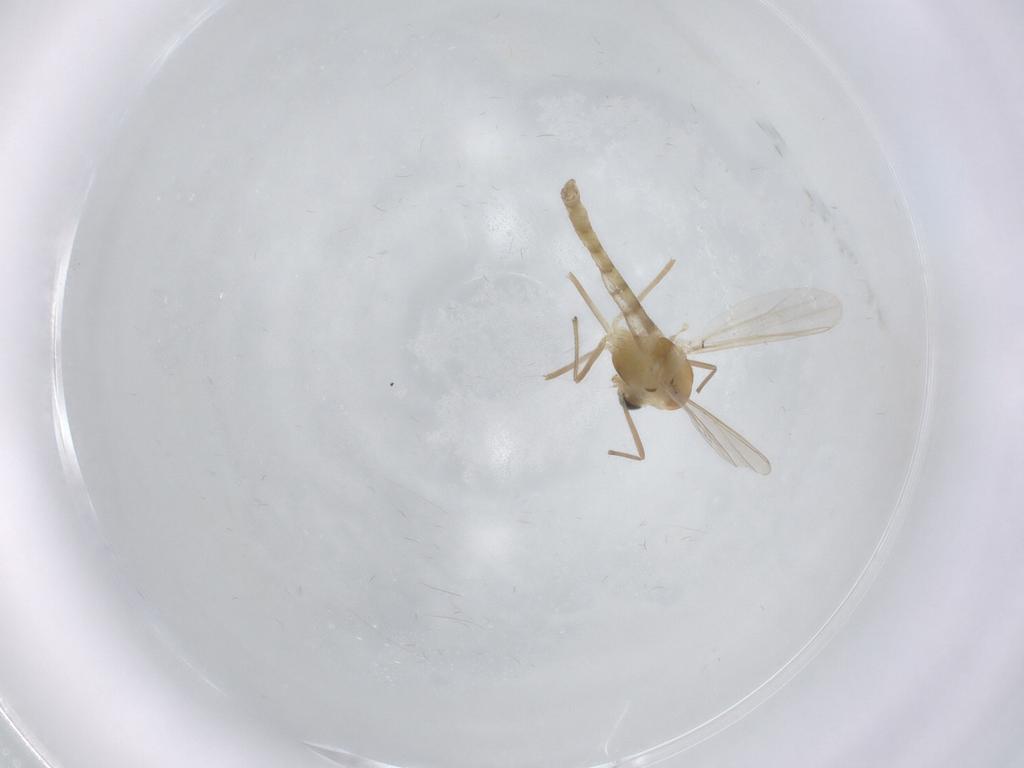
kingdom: Animalia
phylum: Arthropoda
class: Insecta
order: Diptera
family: Chironomidae
